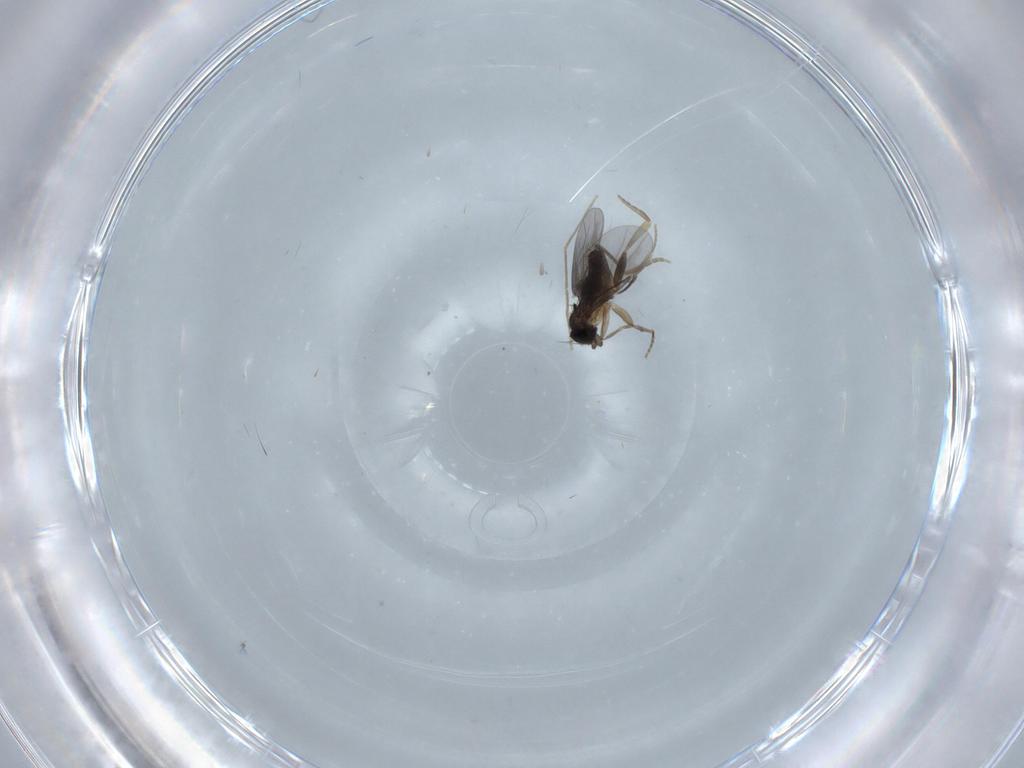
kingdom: Animalia
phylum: Arthropoda
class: Insecta
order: Diptera
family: Chironomidae
